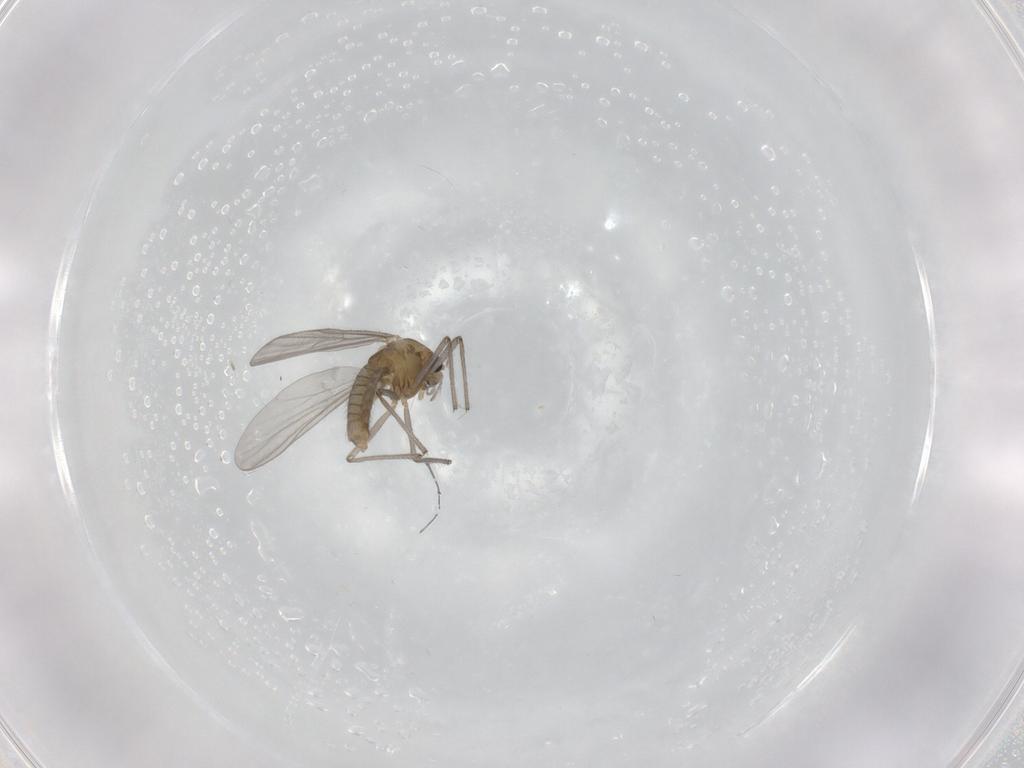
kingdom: Animalia
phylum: Arthropoda
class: Insecta
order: Diptera
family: Chironomidae
